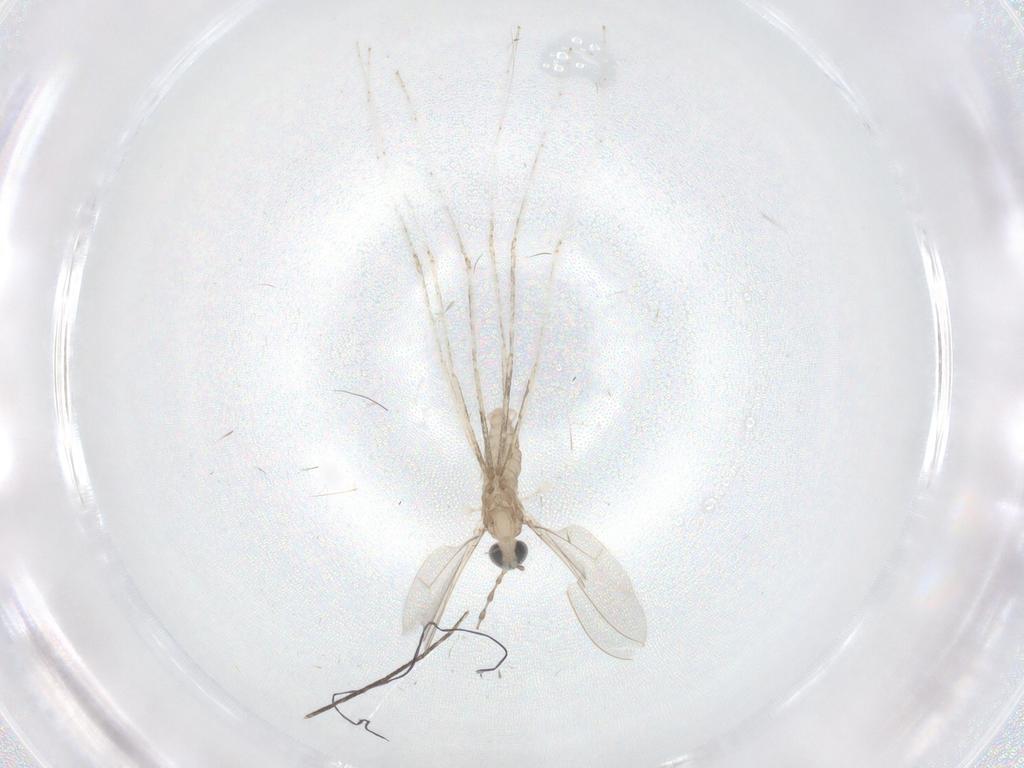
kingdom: Animalia
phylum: Arthropoda
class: Insecta
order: Diptera
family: Cecidomyiidae
